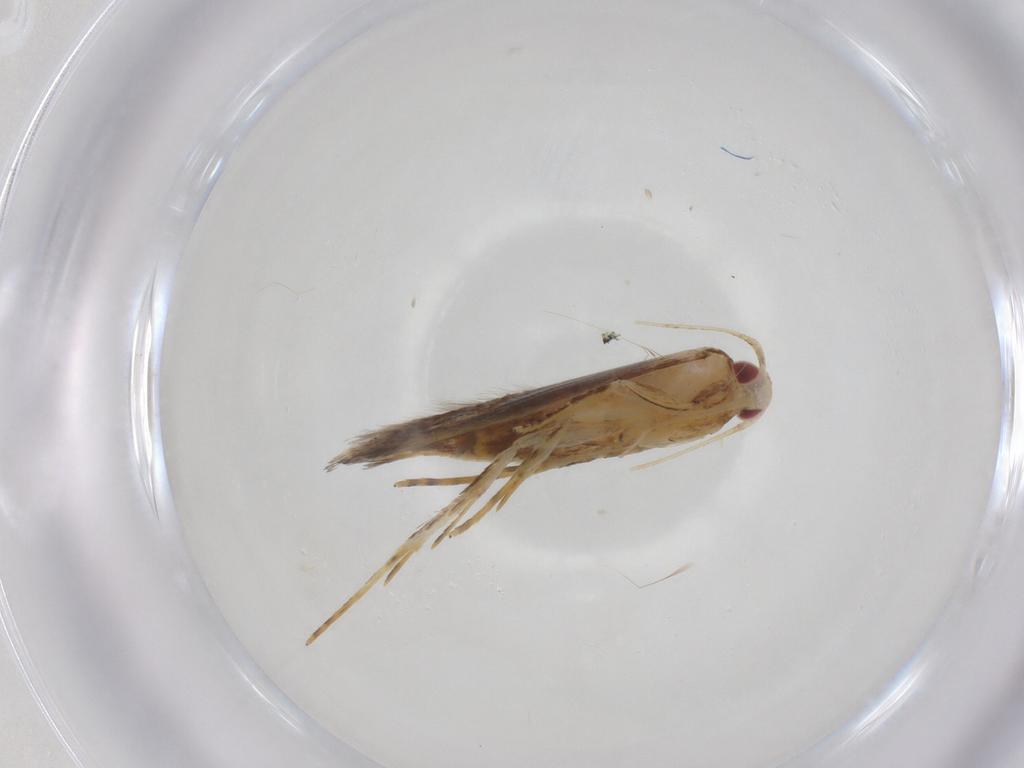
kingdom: Animalia
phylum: Arthropoda
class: Insecta
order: Lepidoptera
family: Cosmopterigidae
